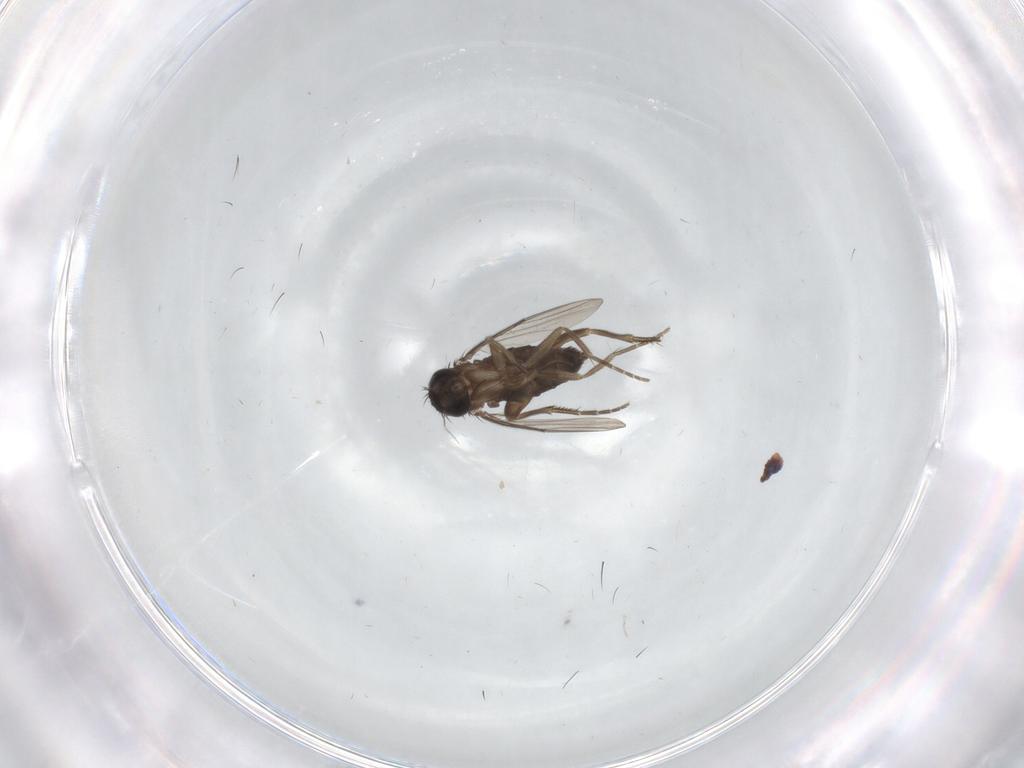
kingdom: Animalia
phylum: Arthropoda
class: Insecta
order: Diptera
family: Phoridae
